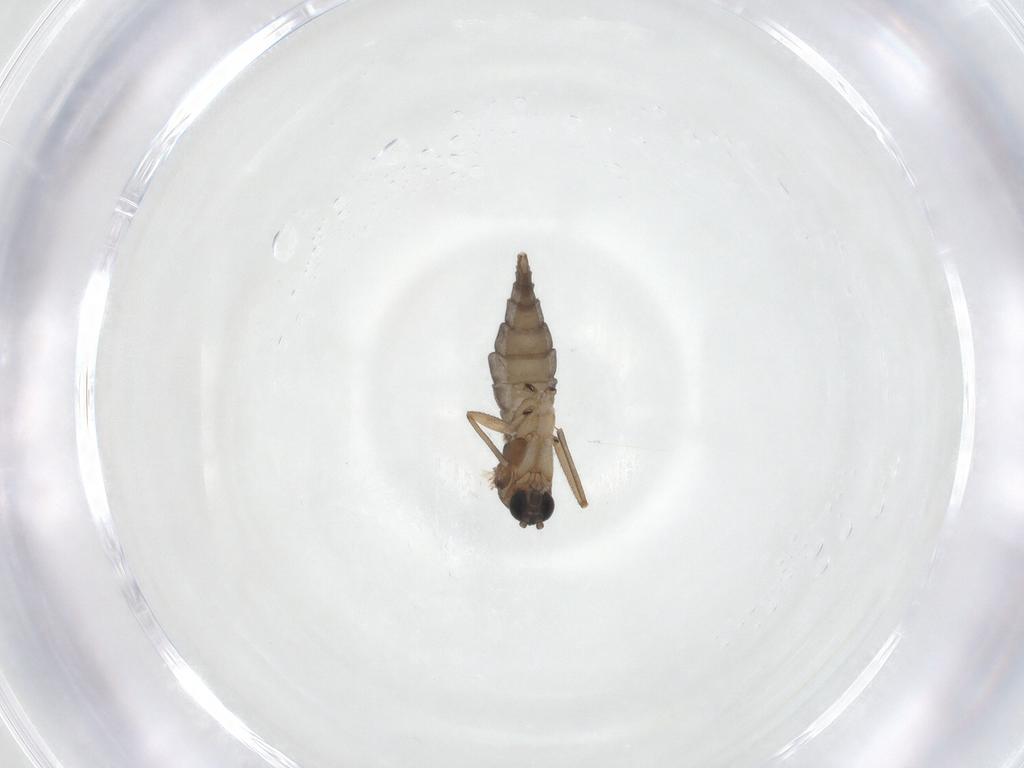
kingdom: Animalia
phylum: Arthropoda
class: Insecta
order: Diptera
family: Sciaridae
